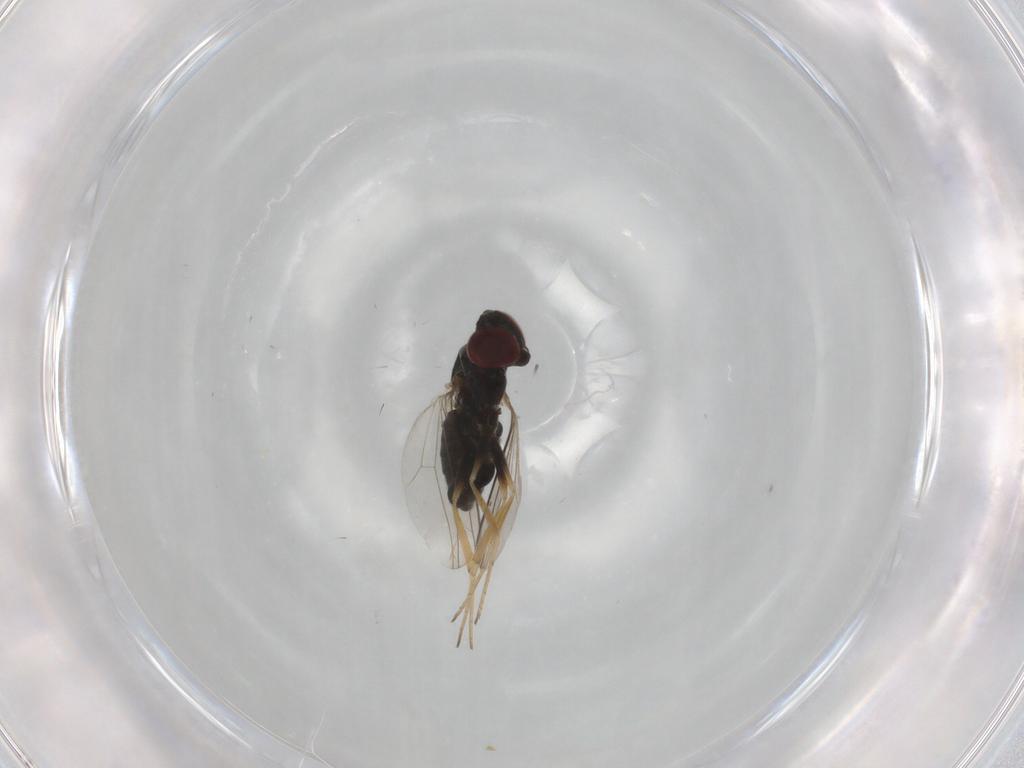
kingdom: Animalia
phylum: Arthropoda
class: Insecta
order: Diptera
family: Dolichopodidae
